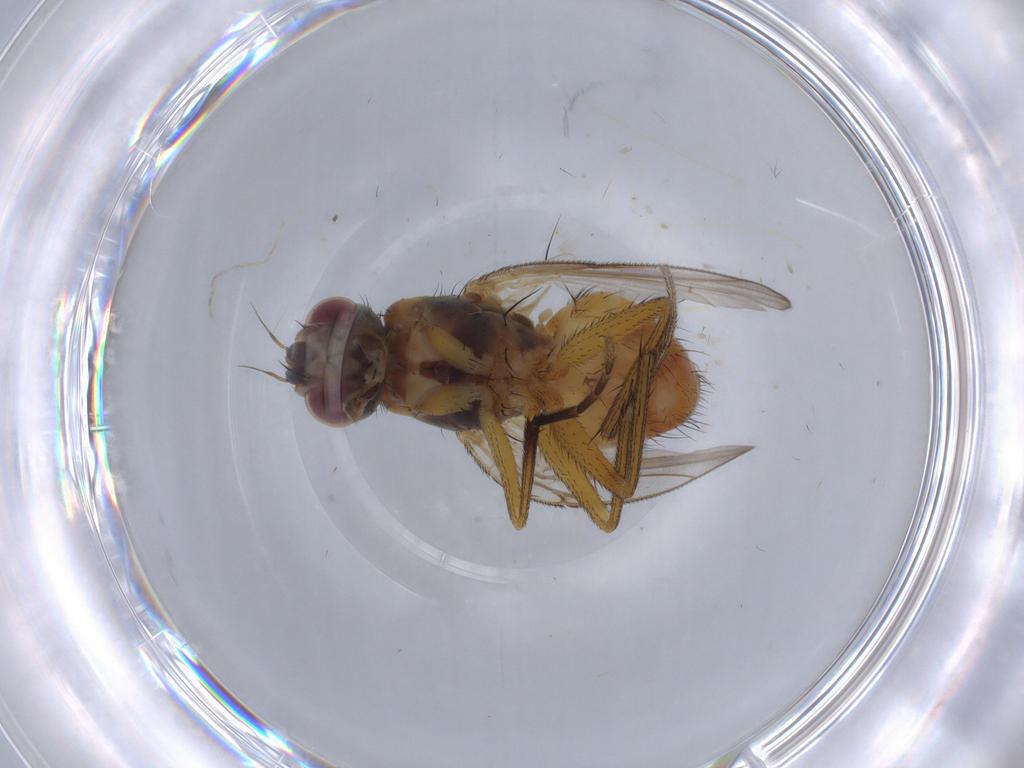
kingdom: Animalia
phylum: Arthropoda
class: Insecta
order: Diptera
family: Muscidae
